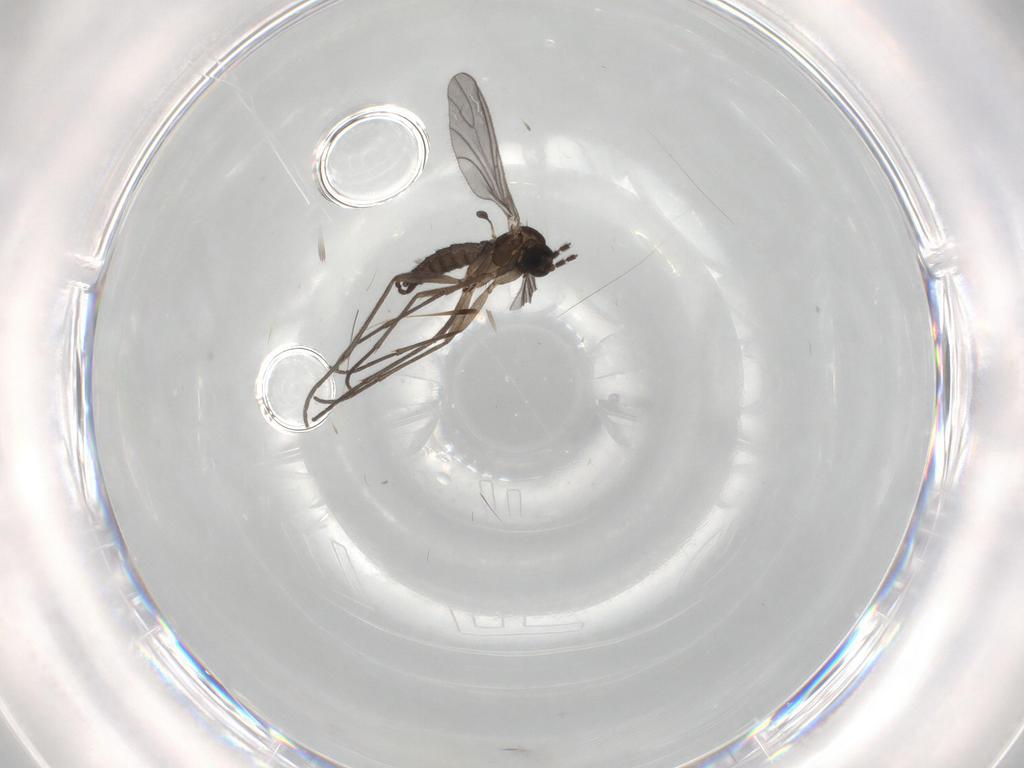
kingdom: Animalia
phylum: Arthropoda
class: Insecta
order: Diptera
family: Sciaridae
